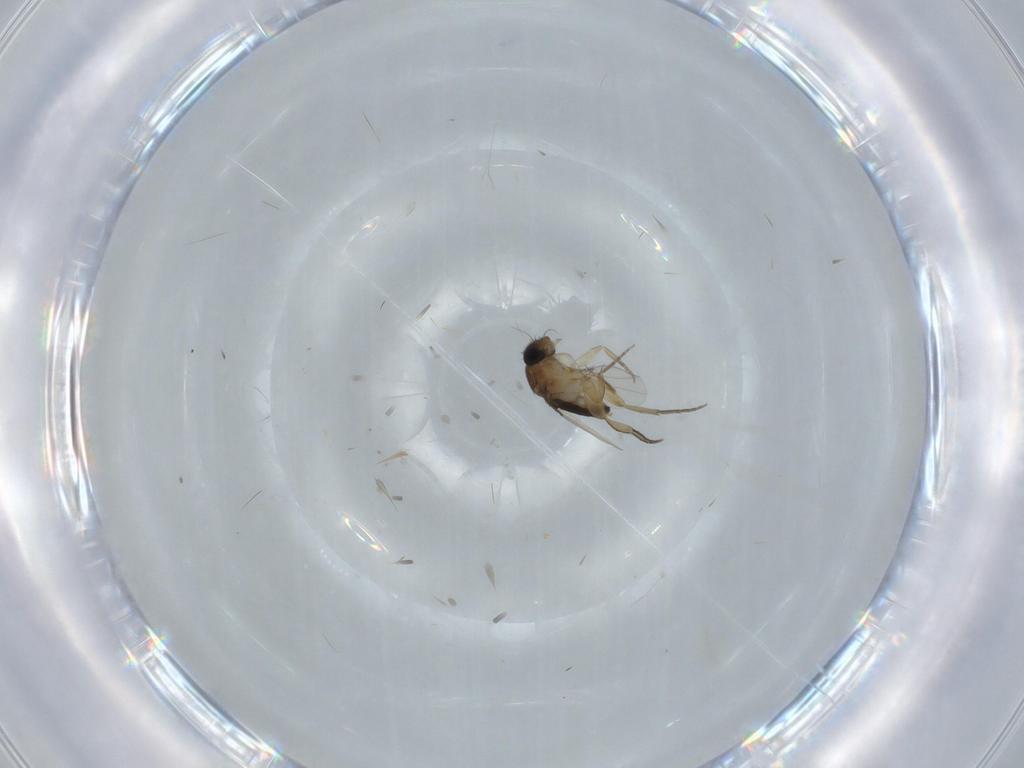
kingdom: Animalia
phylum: Arthropoda
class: Insecta
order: Diptera
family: Phoridae
